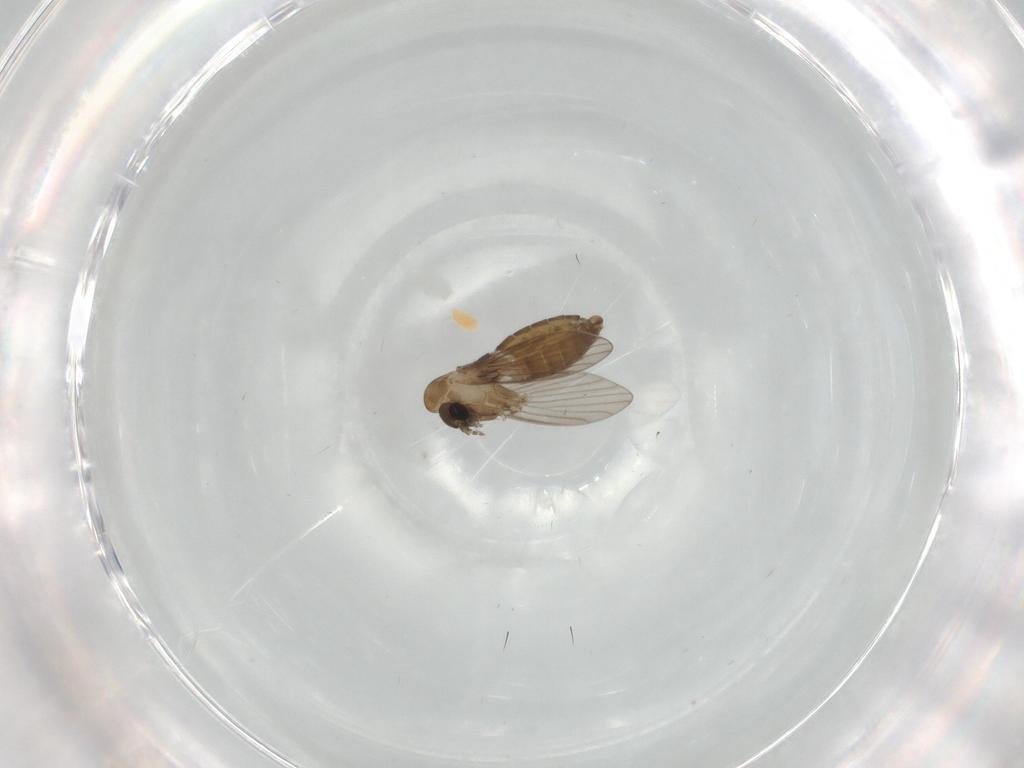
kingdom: Animalia
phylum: Arthropoda
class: Insecta
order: Diptera
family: Cecidomyiidae
